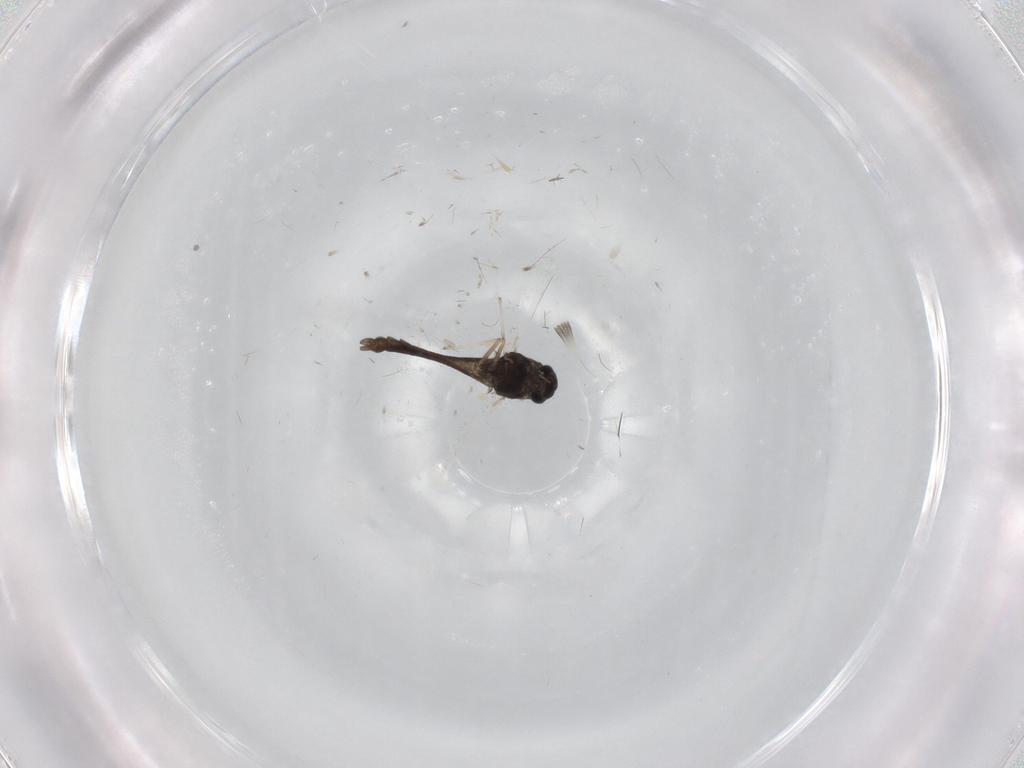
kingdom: Animalia
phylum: Arthropoda
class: Insecta
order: Diptera
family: Chironomidae
